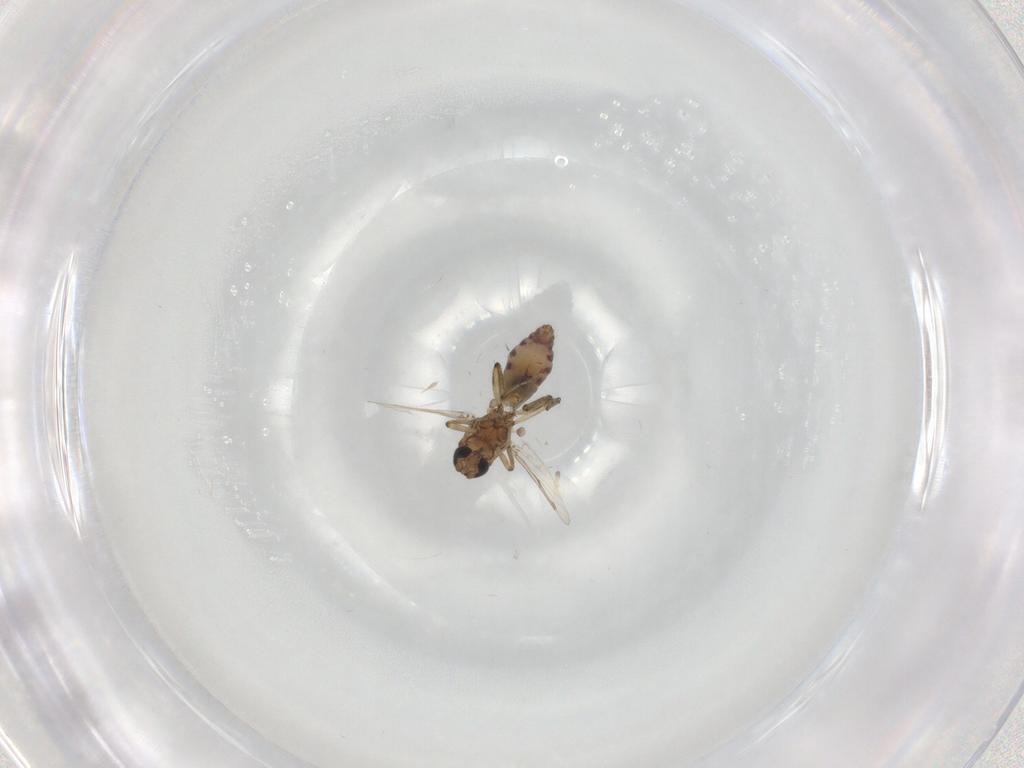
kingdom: Animalia
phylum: Arthropoda
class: Insecta
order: Diptera
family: Ceratopogonidae
